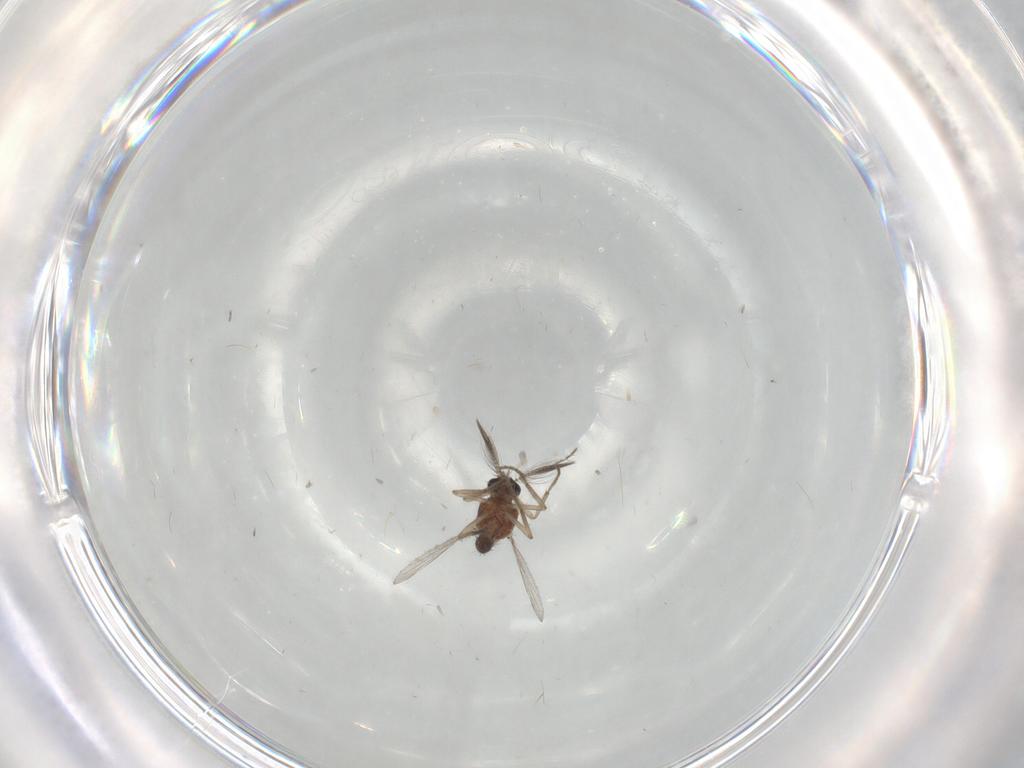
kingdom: Animalia
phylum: Arthropoda
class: Insecta
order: Diptera
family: Ceratopogonidae
